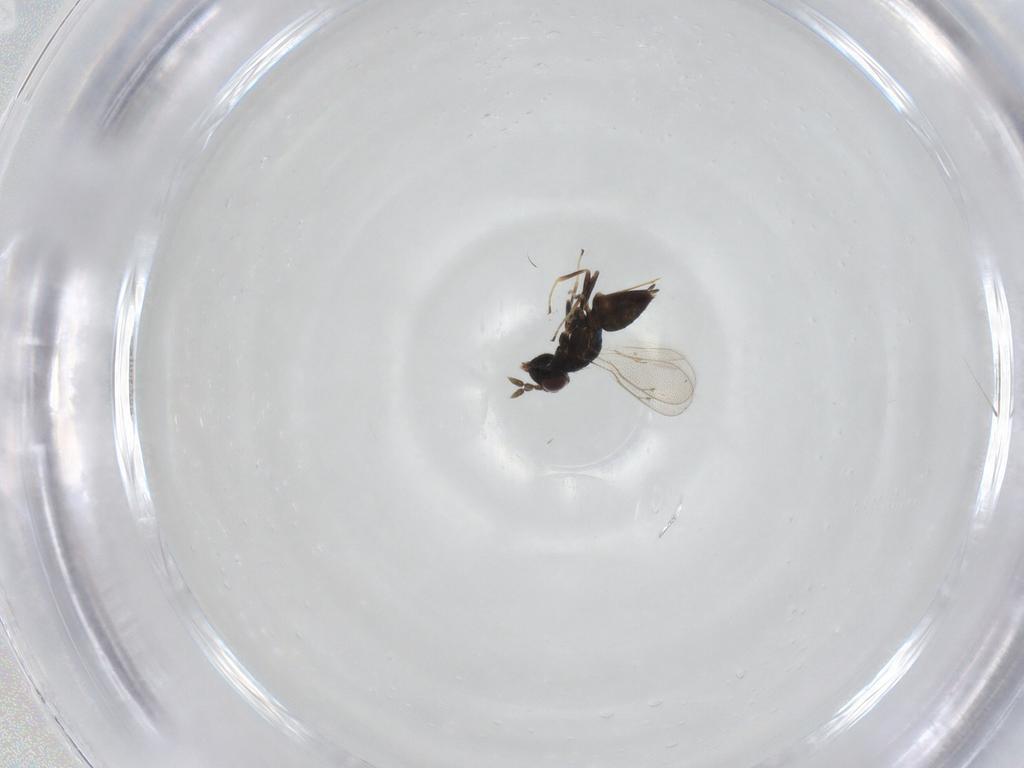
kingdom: Animalia
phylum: Arthropoda
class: Insecta
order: Hymenoptera
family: Eulophidae
